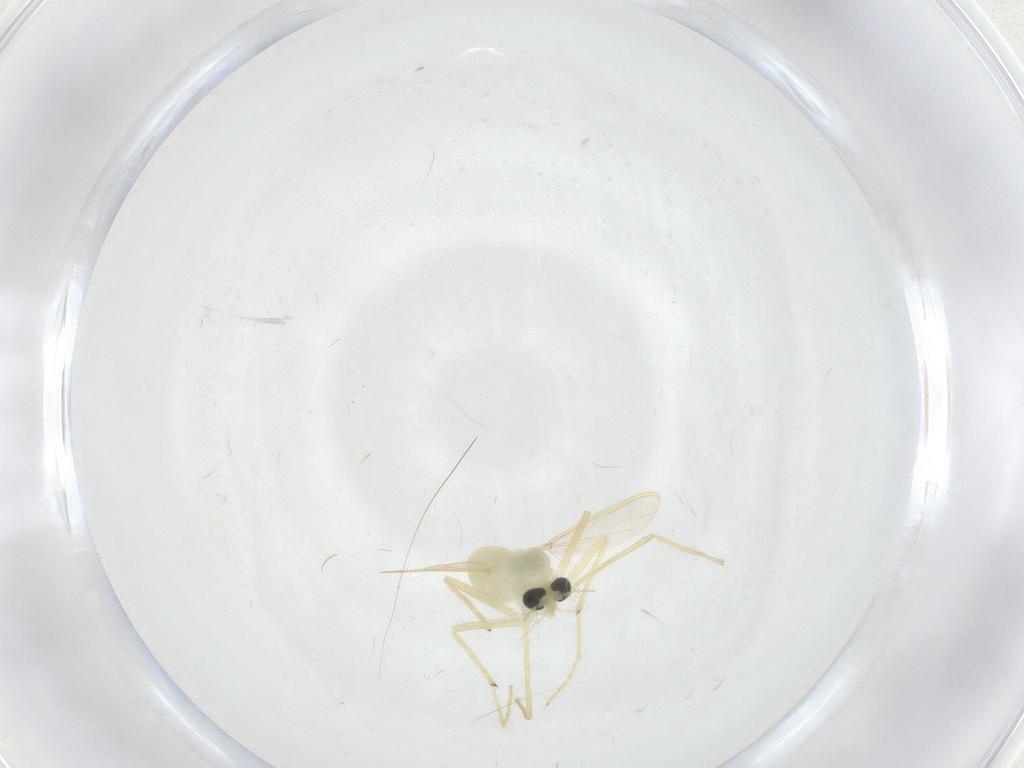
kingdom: Animalia
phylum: Arthropoda
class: Insecta
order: Diptera
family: Chironomidae
